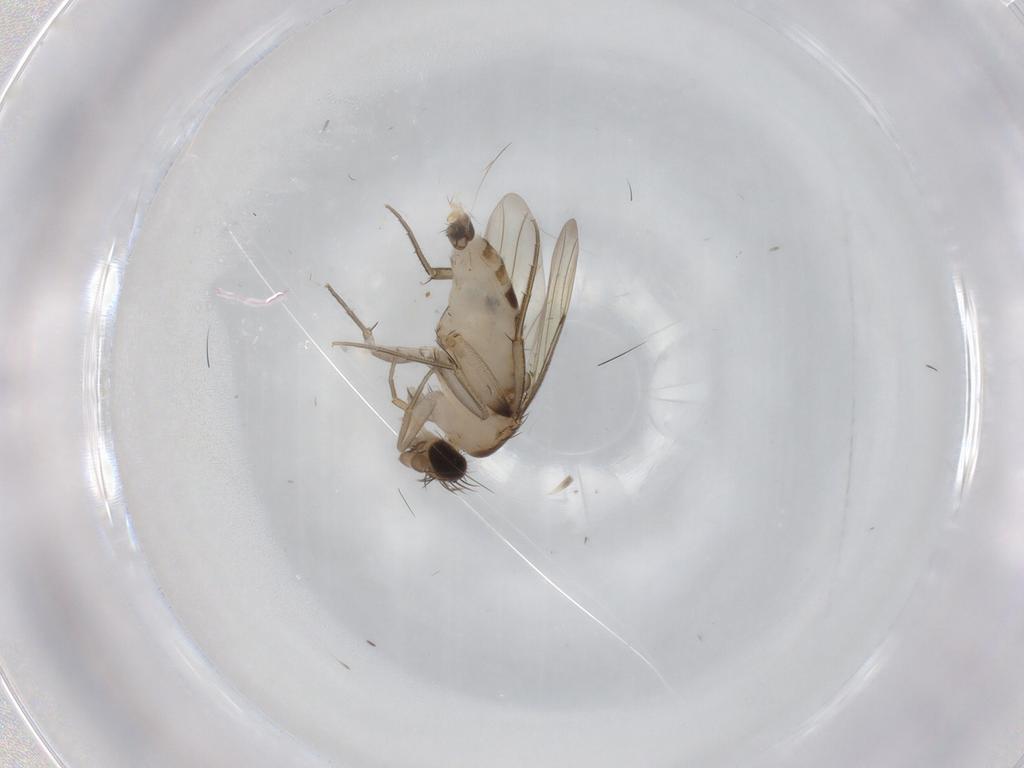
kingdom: Animalia
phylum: Arthropoda
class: Insecta
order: Diptera
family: Phoridae
